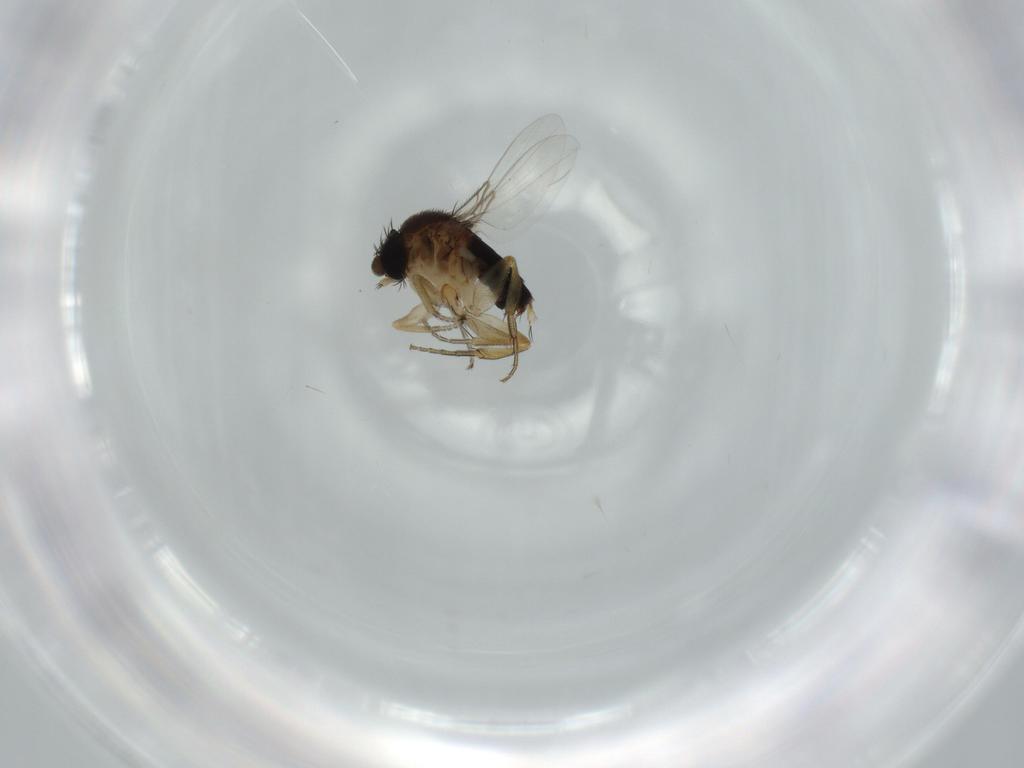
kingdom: Animalia
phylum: Arthropoda
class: Insecta
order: Diptera
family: Phoridae
